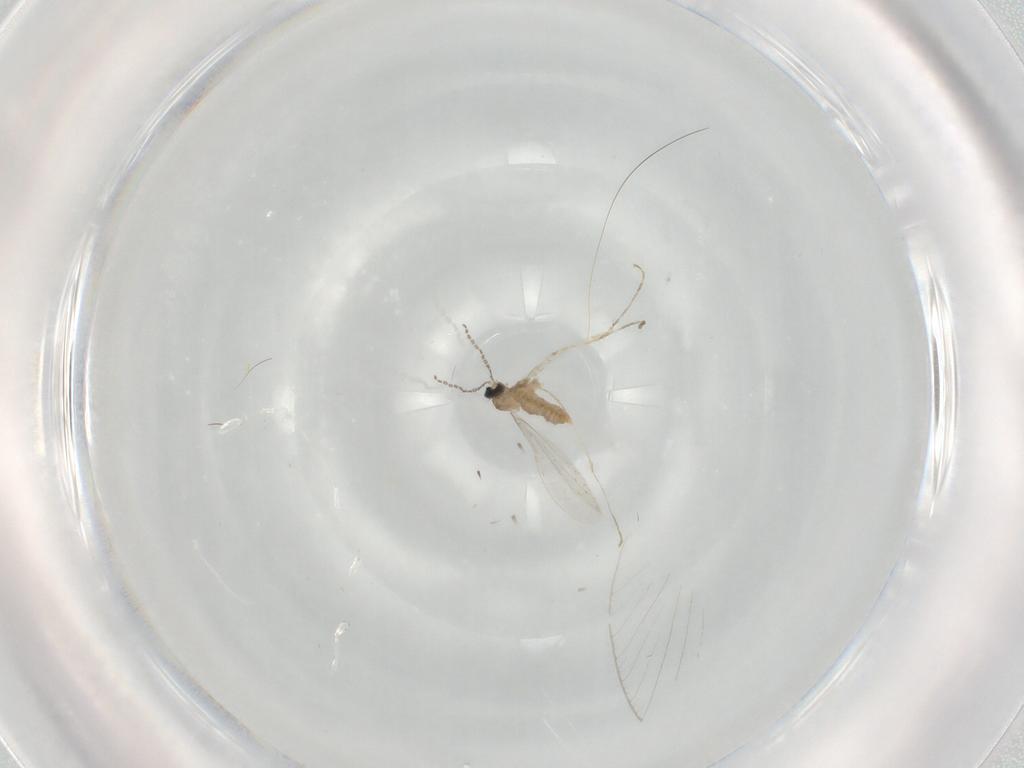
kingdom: Animalia
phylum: Arthropoda
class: Insecta
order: Diptera
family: Cecidomyiidae
